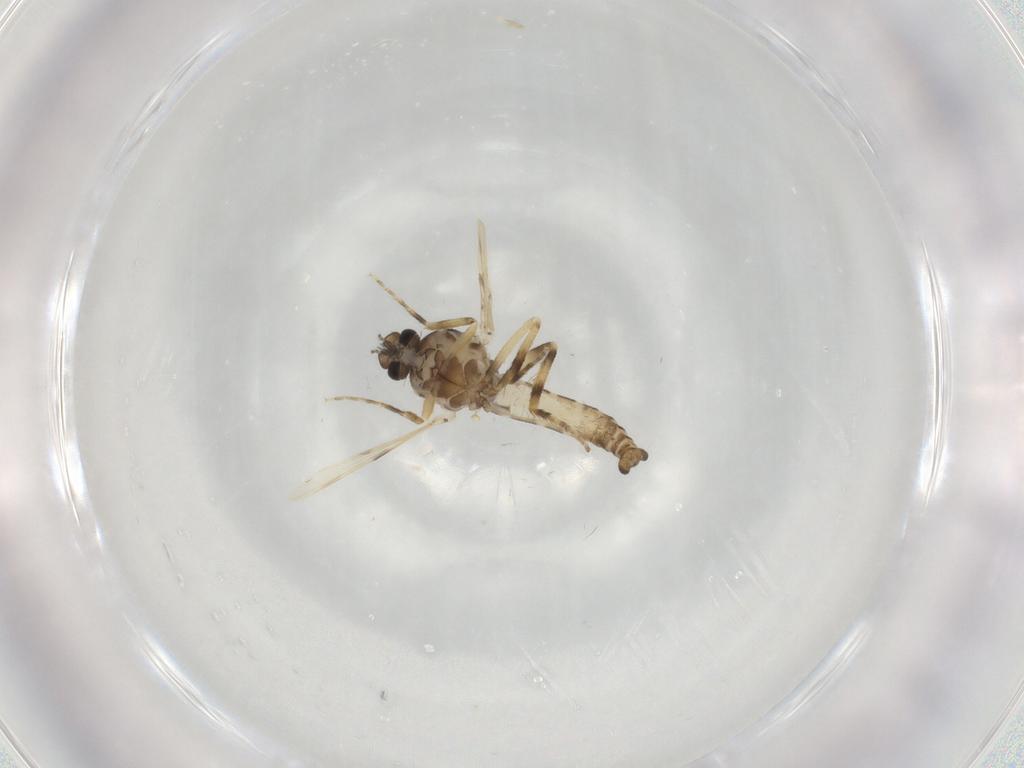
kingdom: Animalia
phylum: Arthropoda
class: Insecta
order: Diptera
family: Ceratopogonidae
